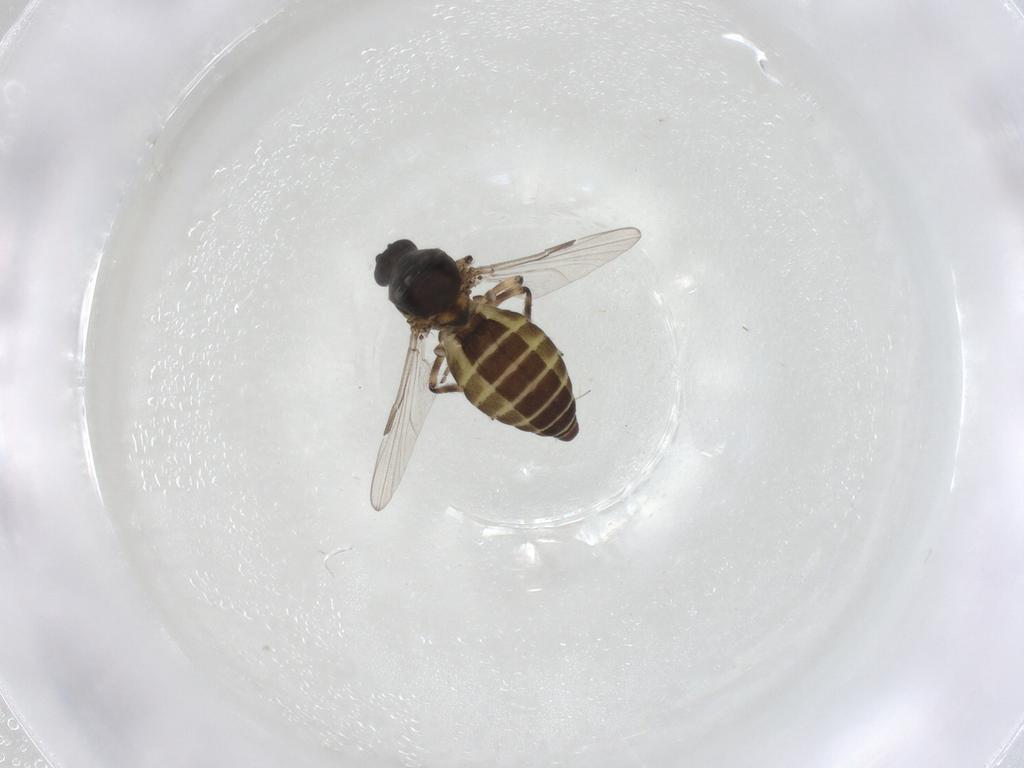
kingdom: Animalia
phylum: Arthropoda
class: Insecta
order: Diptera
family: Ceratopogonidae
